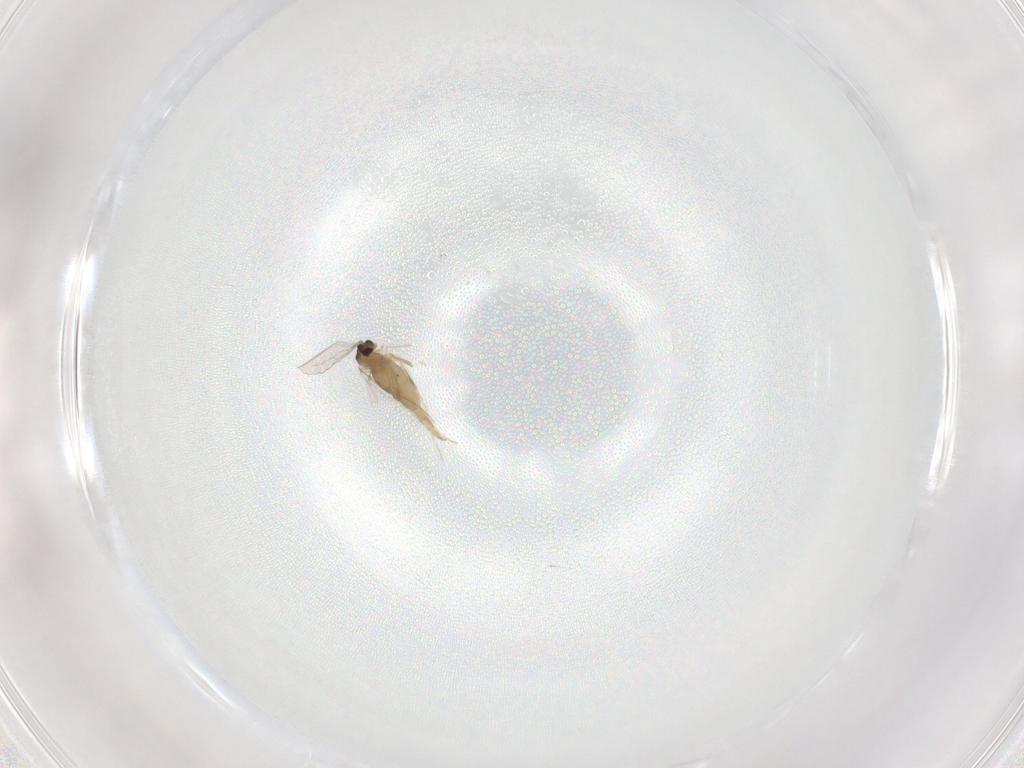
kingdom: Animalia
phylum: Arthropoda
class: Insecta
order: Diptera
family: Cecidomyiidae
